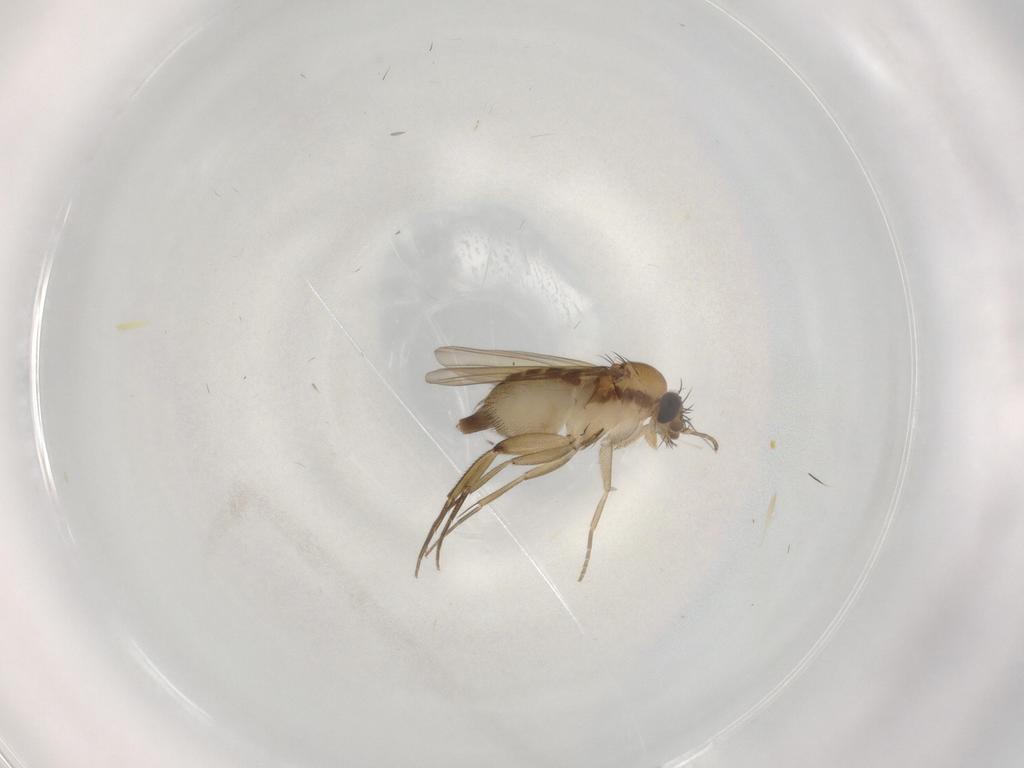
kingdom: Animalia
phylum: Arthropoda
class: Insecta
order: Diptera
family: Phoridae
